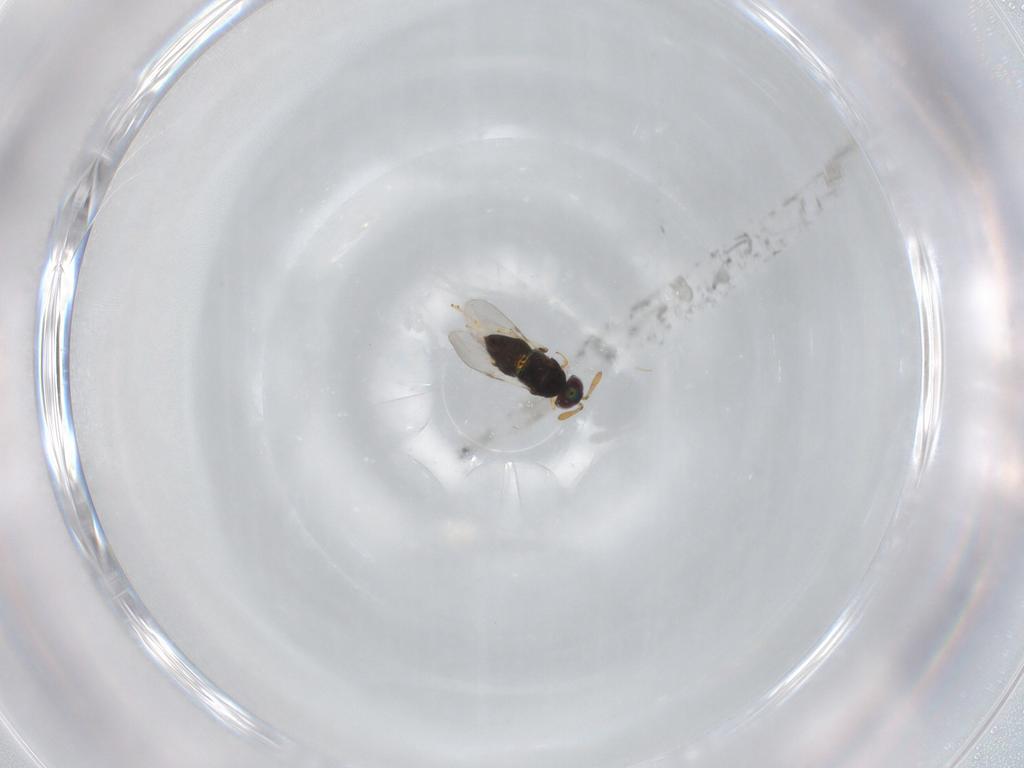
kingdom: Animalia
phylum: Arthropoda
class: Insecta
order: Hymenoptera
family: Encyrtidae
